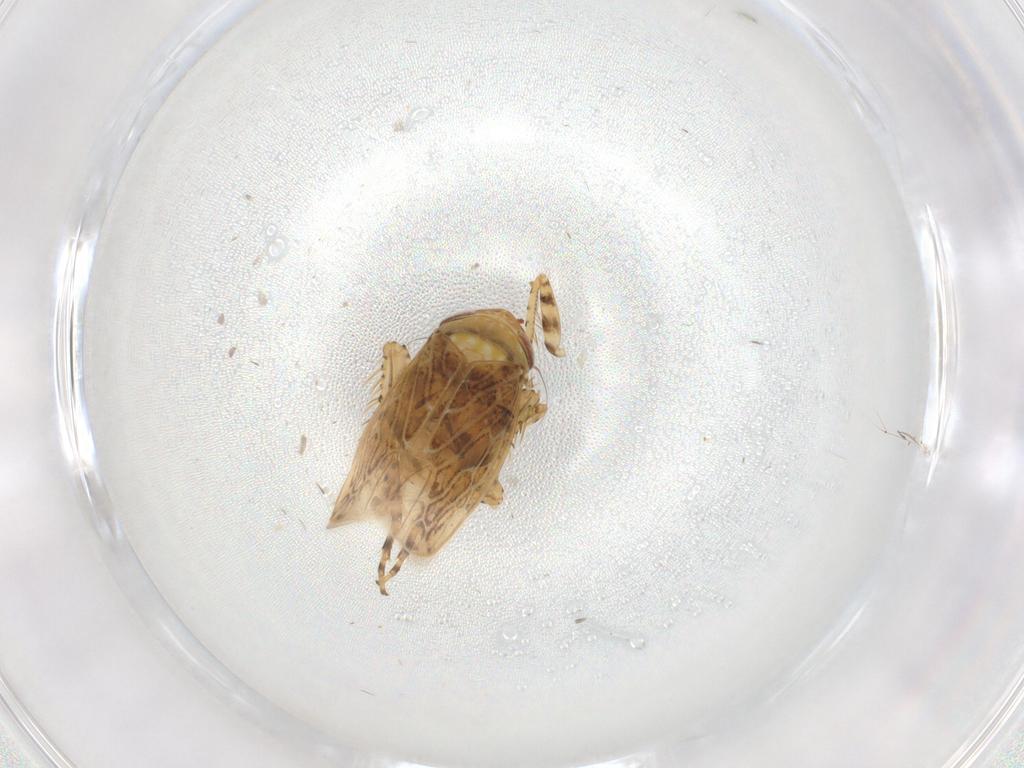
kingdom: Animalia
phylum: Arthropoda
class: Insecta
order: Hemiptera
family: Cicadellidae
